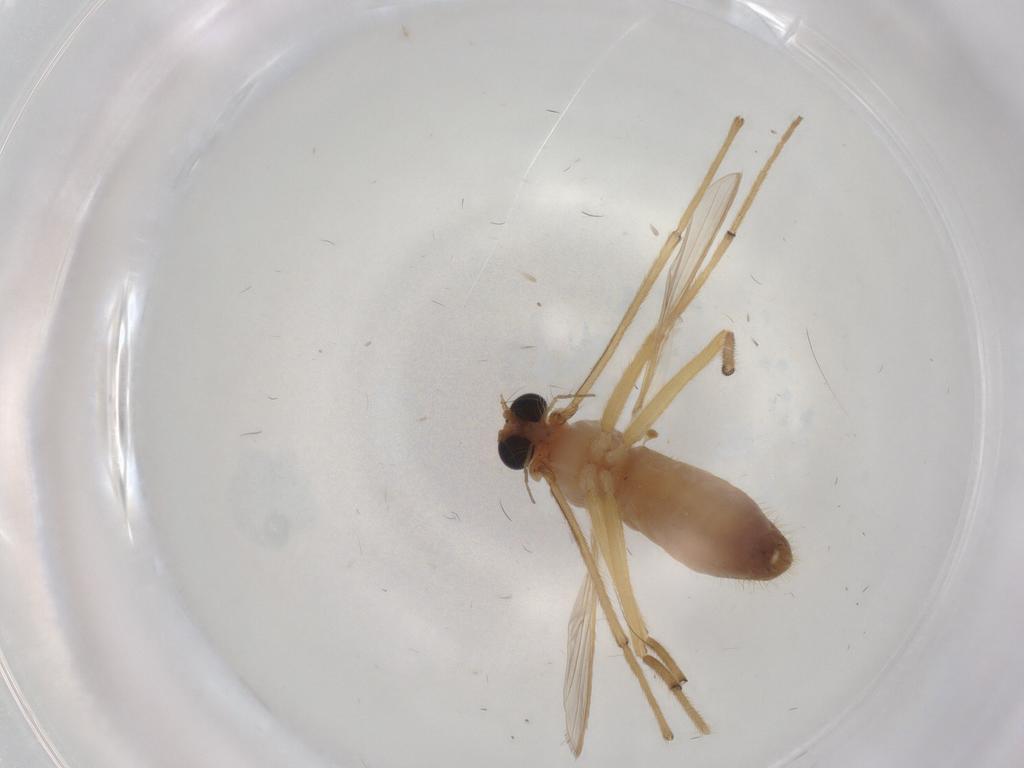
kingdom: Animalia
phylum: Arthropoda
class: Insecta
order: Diptera
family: Chironomidae
